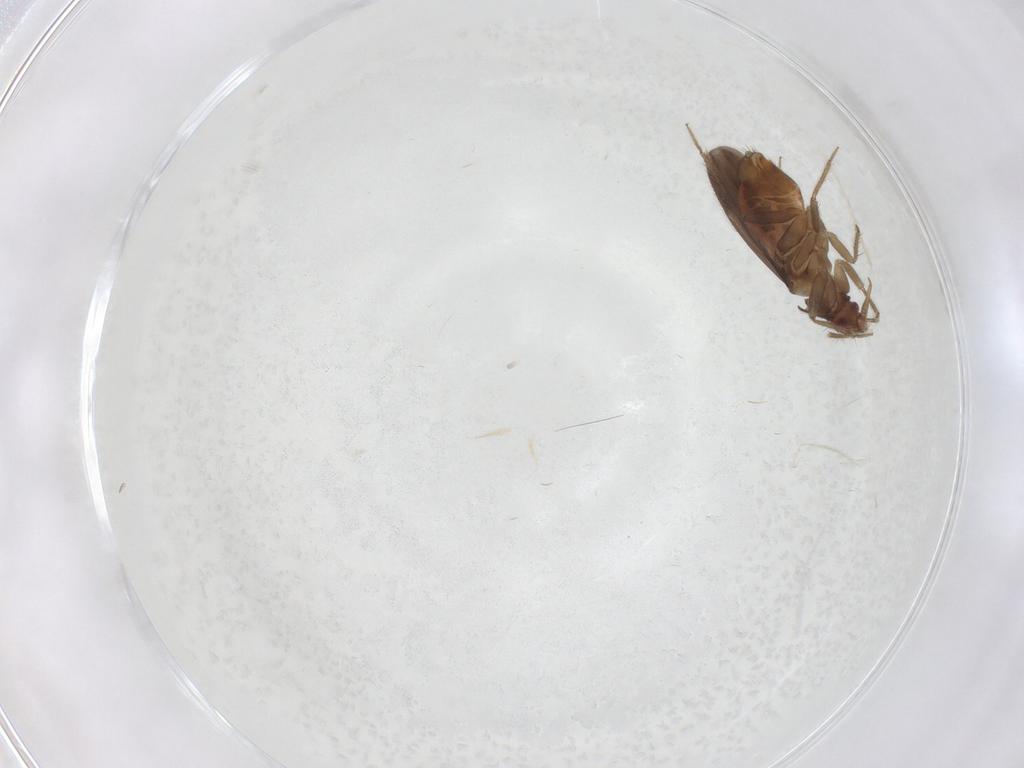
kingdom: Animalia
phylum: Arthropoda
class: Insecta
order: Hemiptera
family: Ceratocombidae
